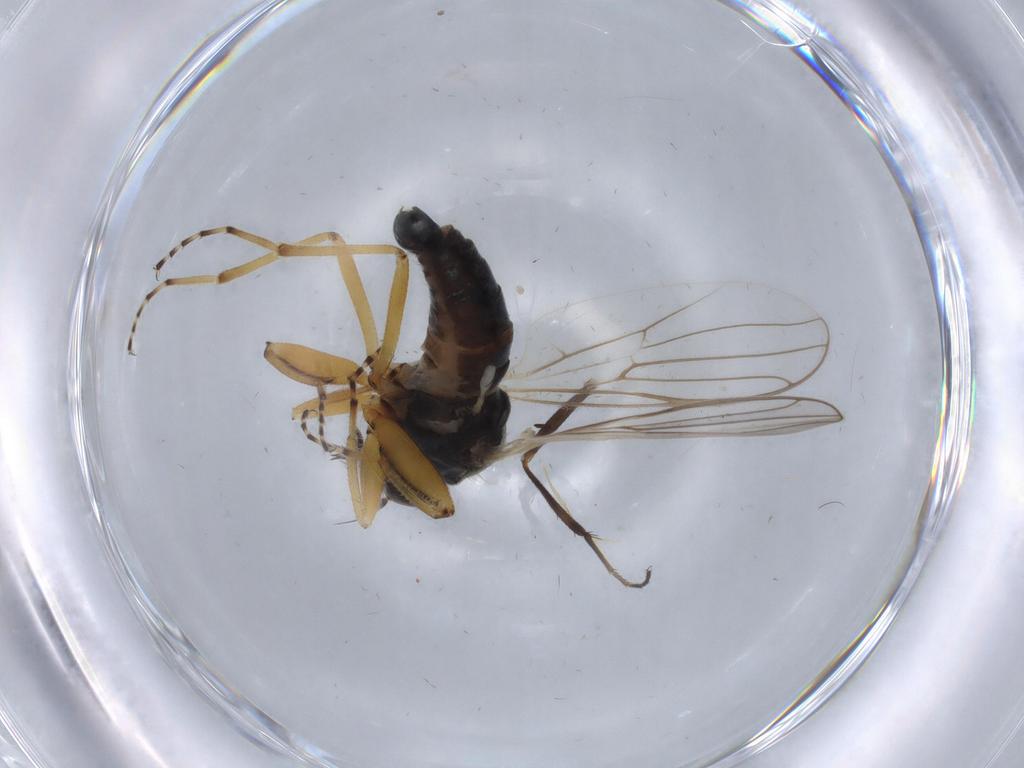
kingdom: Animalia
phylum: Arthropoda
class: Insecta
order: Diptera
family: Hybotidae
